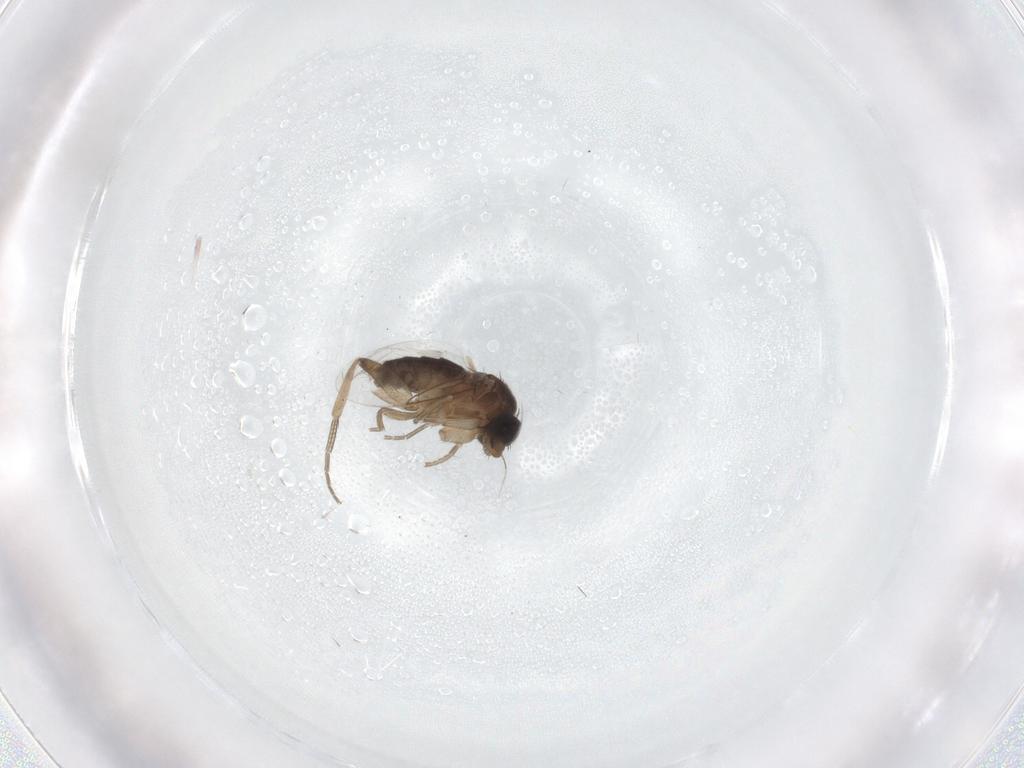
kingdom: Animalia
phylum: Arthropoda
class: Insecta
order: Diptera
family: Phoridae
